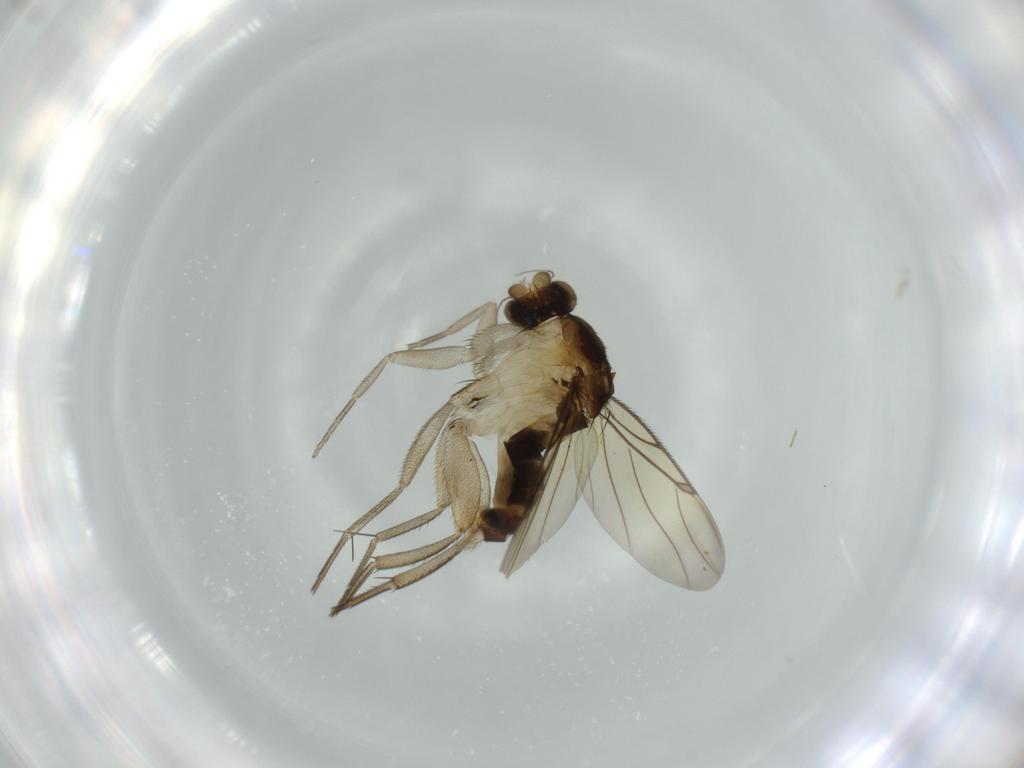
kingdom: Animalia
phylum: Arthropoda
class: Insecta
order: Diptera
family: Phoridae
